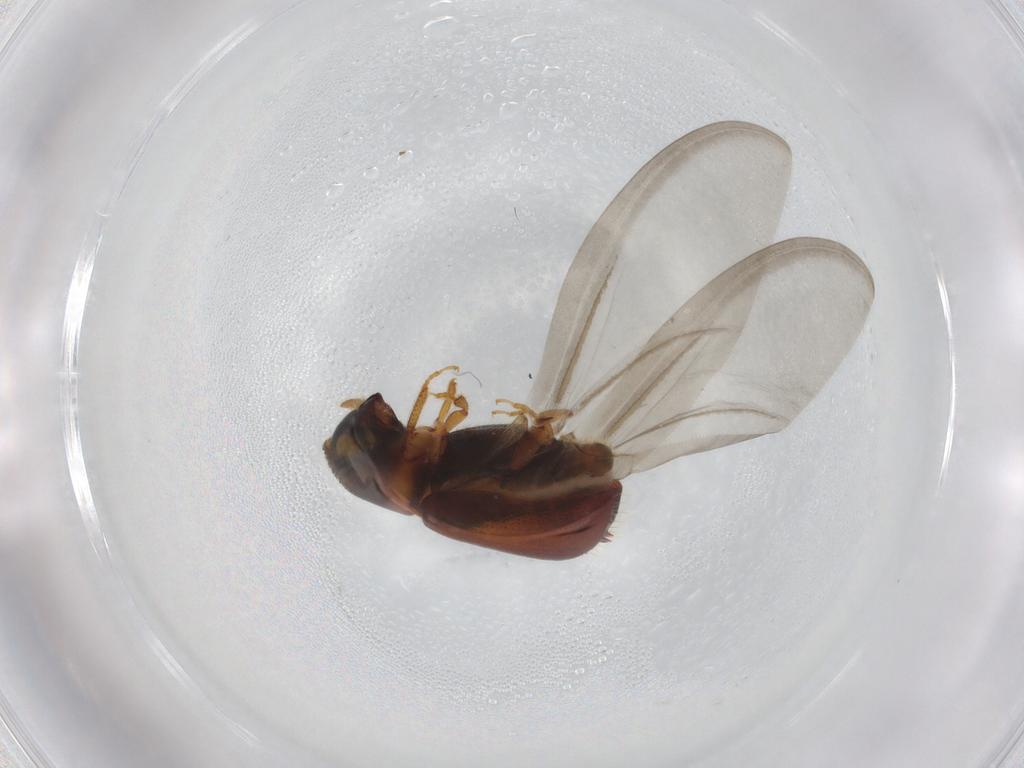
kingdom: Animalia
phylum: Arthropoda
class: Insecta
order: Coleoptera
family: Curculionidae
